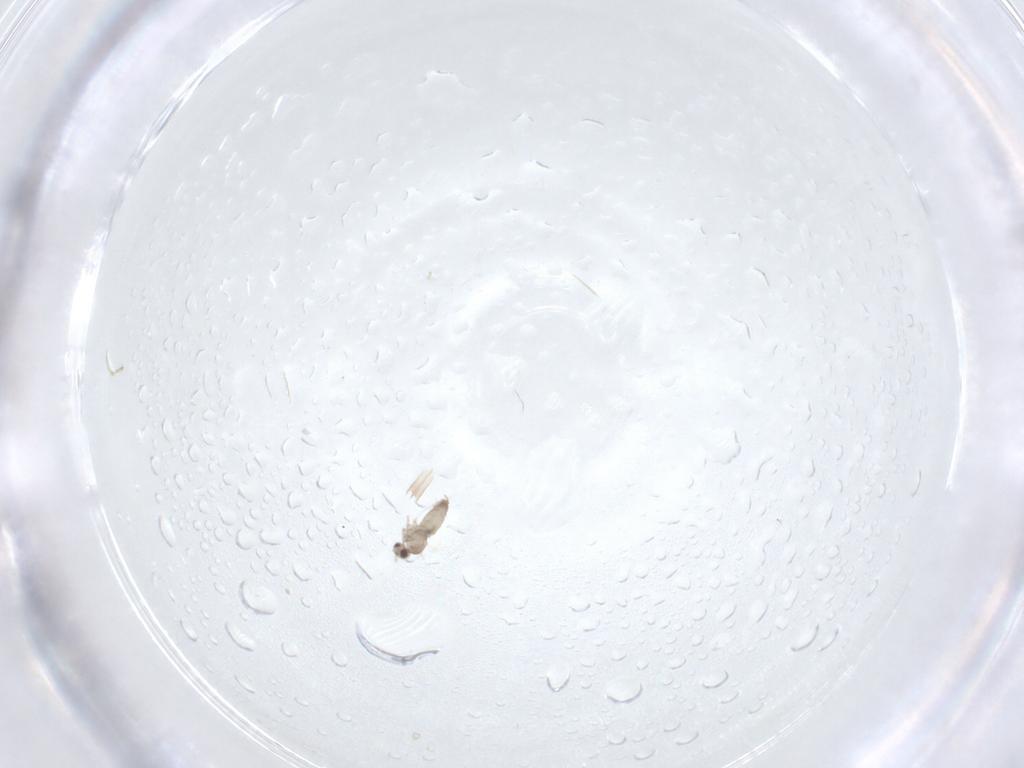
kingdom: Animalia
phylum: Arthropoda
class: Insecta
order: Diptera
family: Cecidomyiidae
